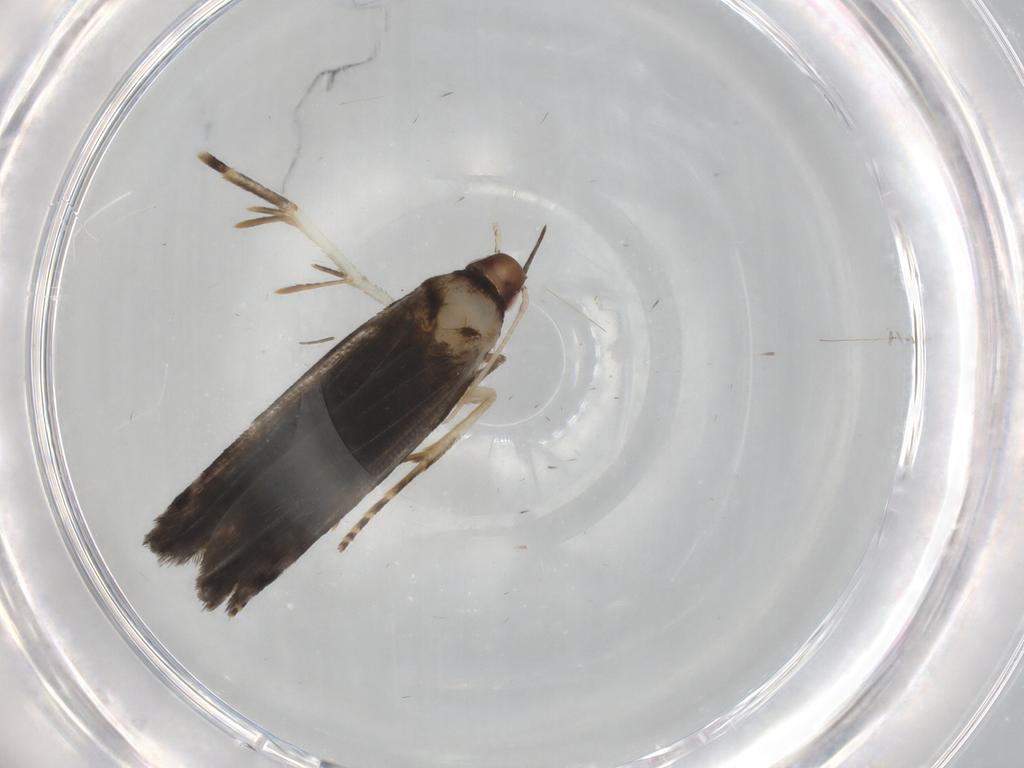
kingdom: Animalia
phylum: Arthropoda
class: Insecta
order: Lepidoptera
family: Gelechiidae
